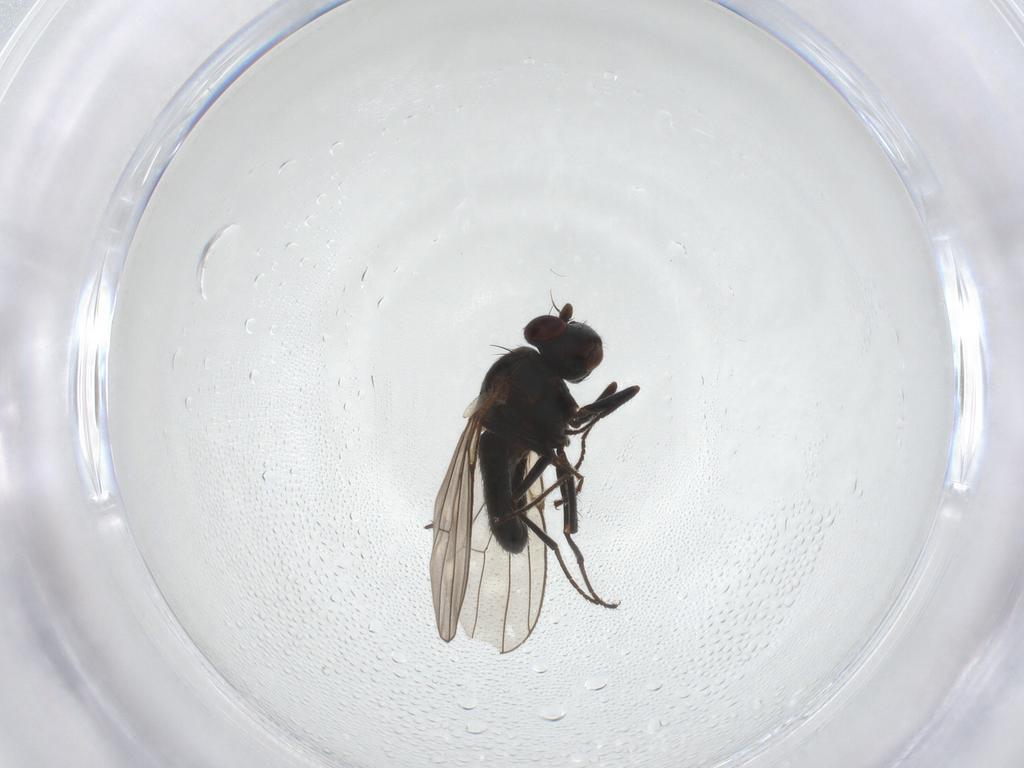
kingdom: Animalia
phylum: Arthropoda
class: Insecta
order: Diptera
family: Ephydridae
